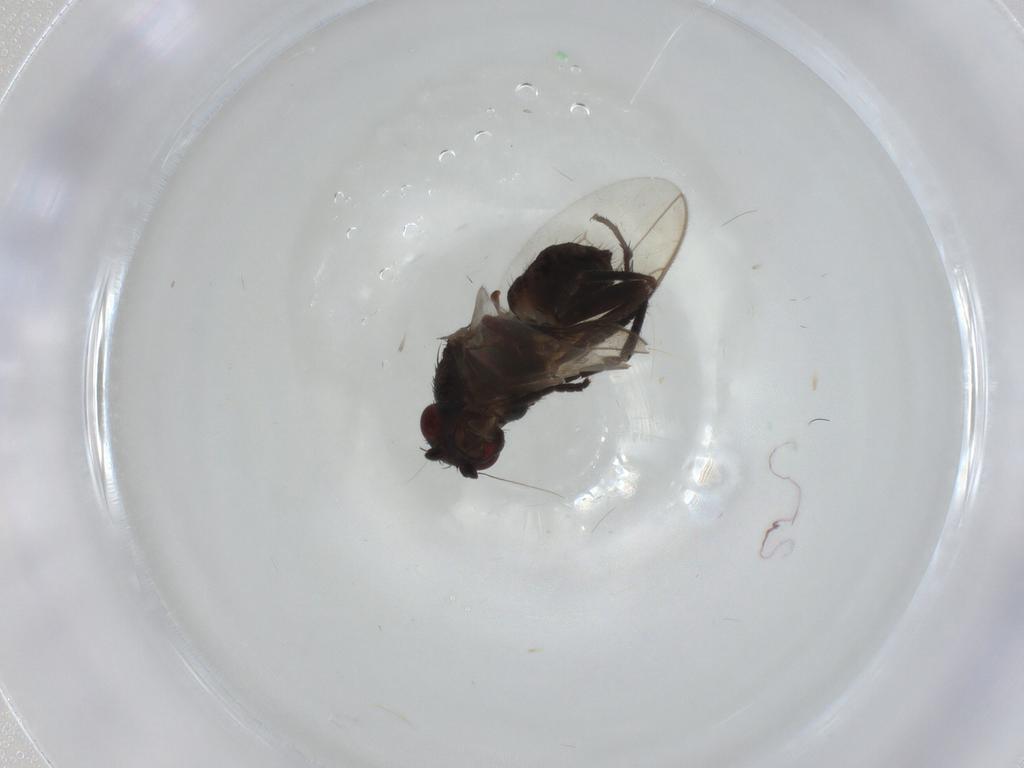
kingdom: Animalia
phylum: Arthropoda
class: Insecta
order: Diptera
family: Sphaeroceridae
